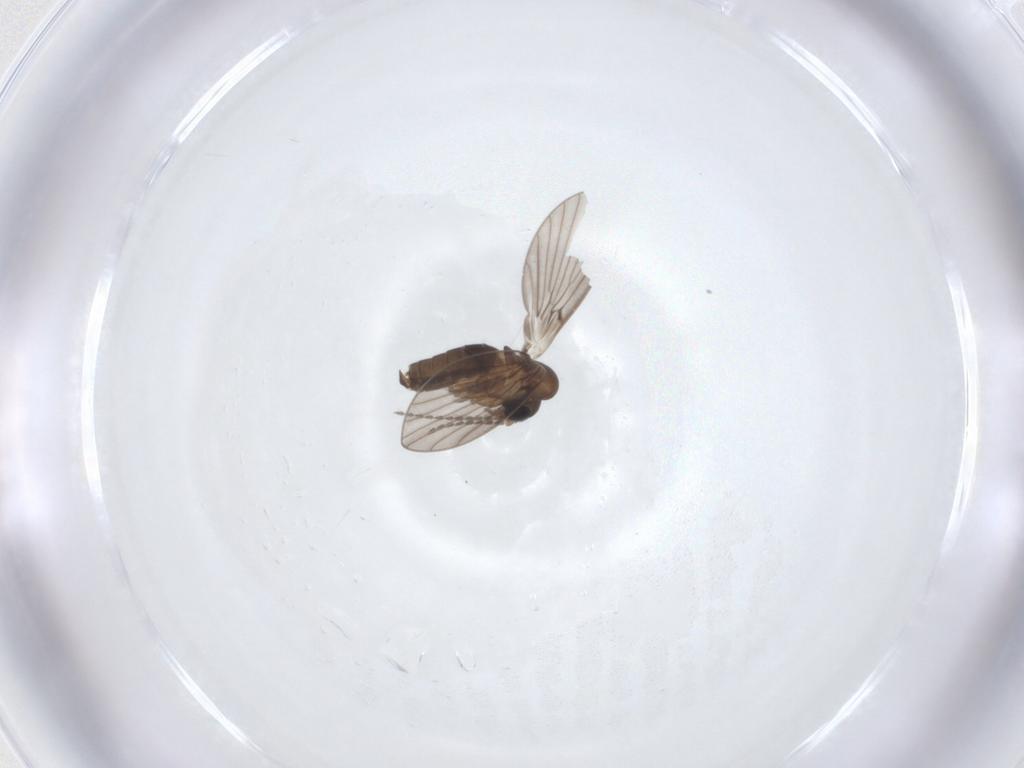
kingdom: Animalia
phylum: Arthropoda
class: Insecta
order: Diptera
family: Psychodidae
